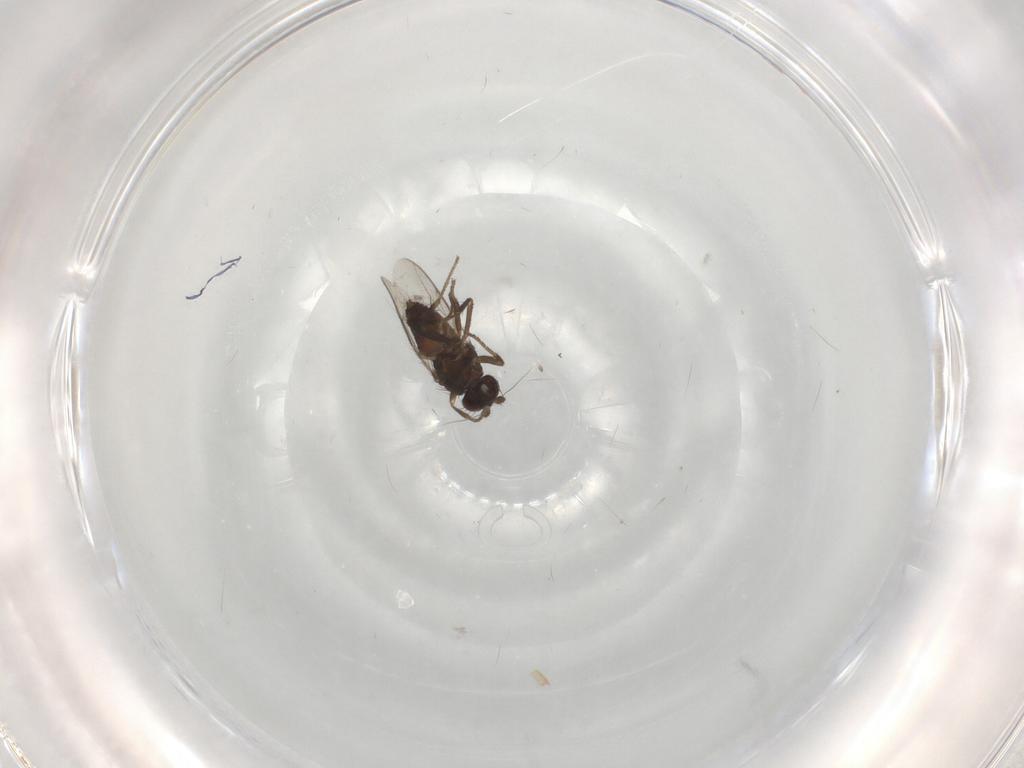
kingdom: Animalia
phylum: Arthropoda
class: Insecta
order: Diptera
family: Sphaeroceridae
